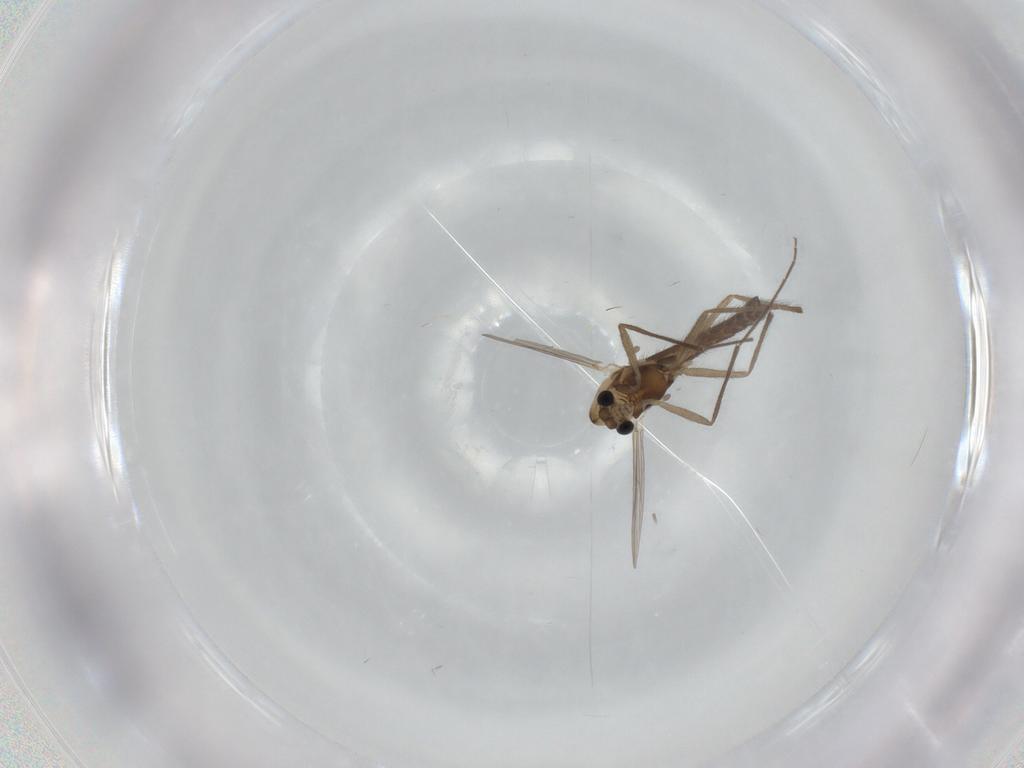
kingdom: Animalia
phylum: Arthropoda
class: Insecta
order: Diptera
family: Chironomidae
